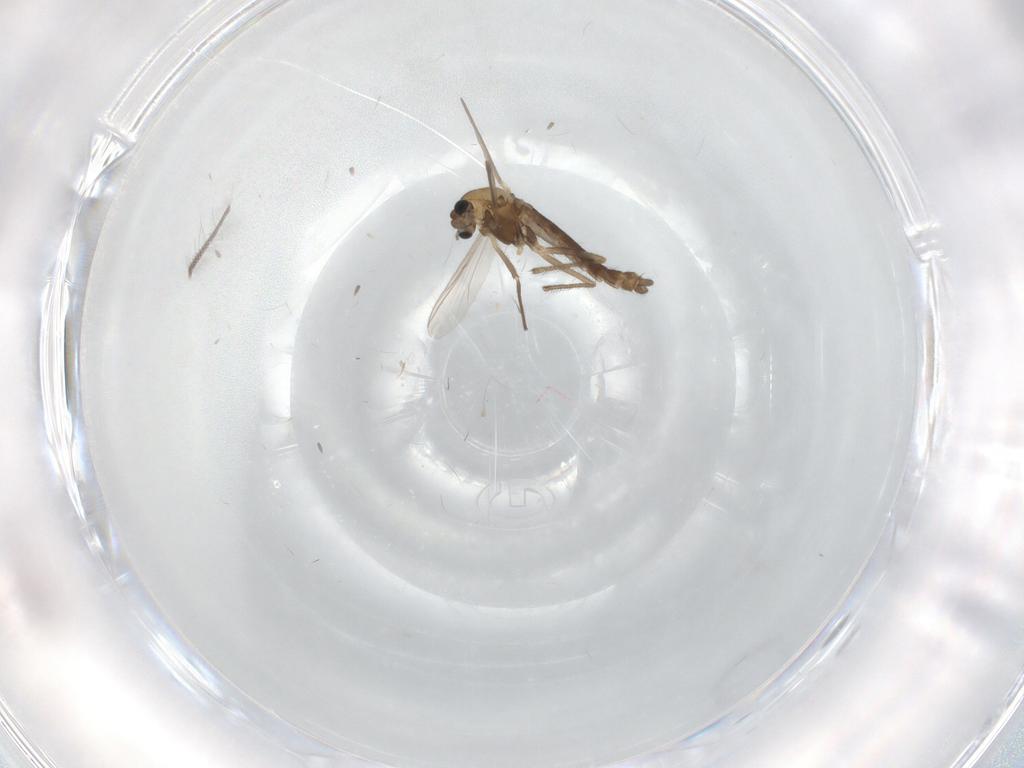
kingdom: Animalia
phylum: Arthropoda
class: Insecta
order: Diptera
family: Chironomidae
